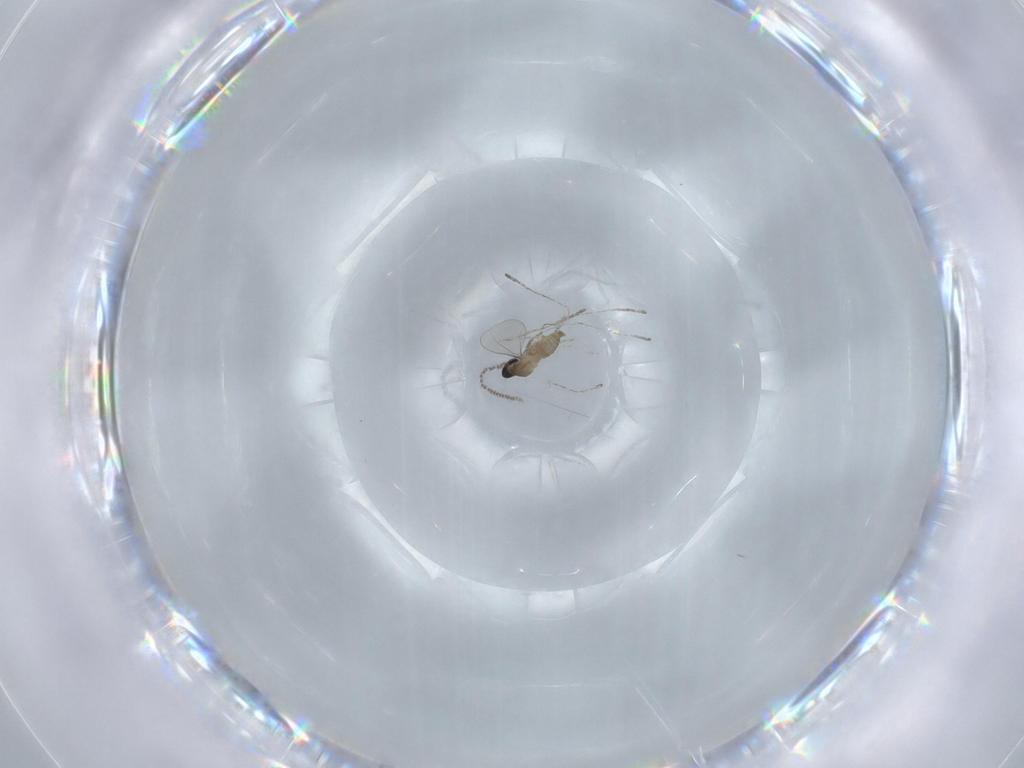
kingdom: Animalia
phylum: Arthropoda
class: Insecta
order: Diptera
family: Cecidomyiidae
